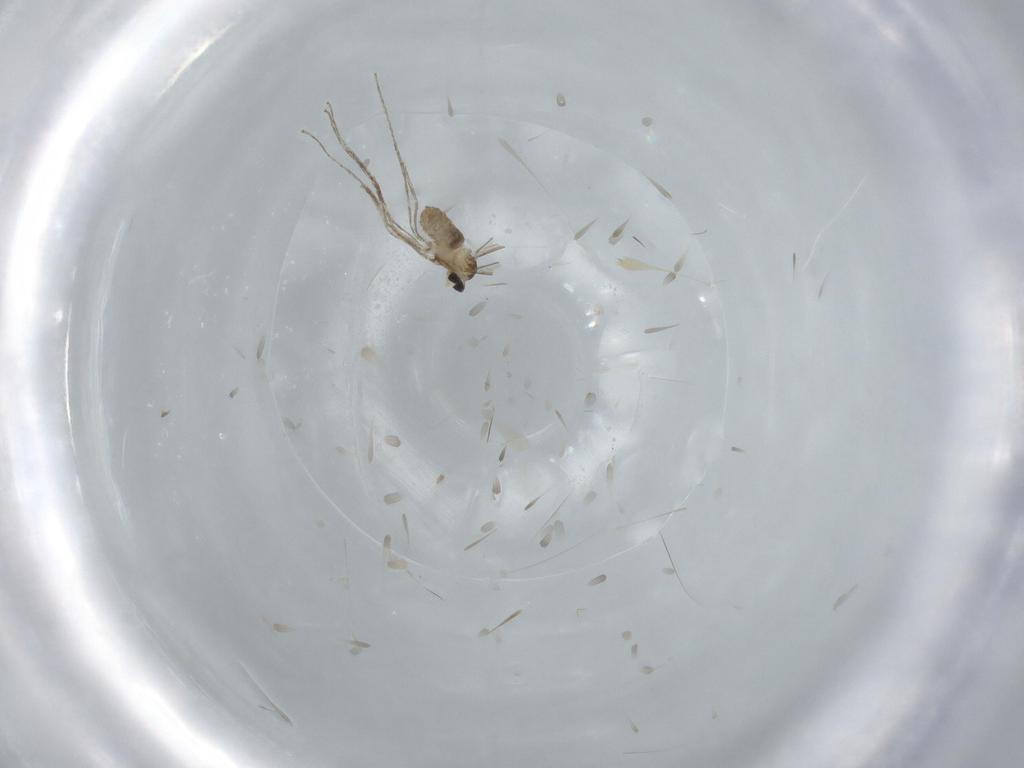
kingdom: Animalia
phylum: Arthropoda
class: Insecta
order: Diptera
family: Cecidomyiidae
